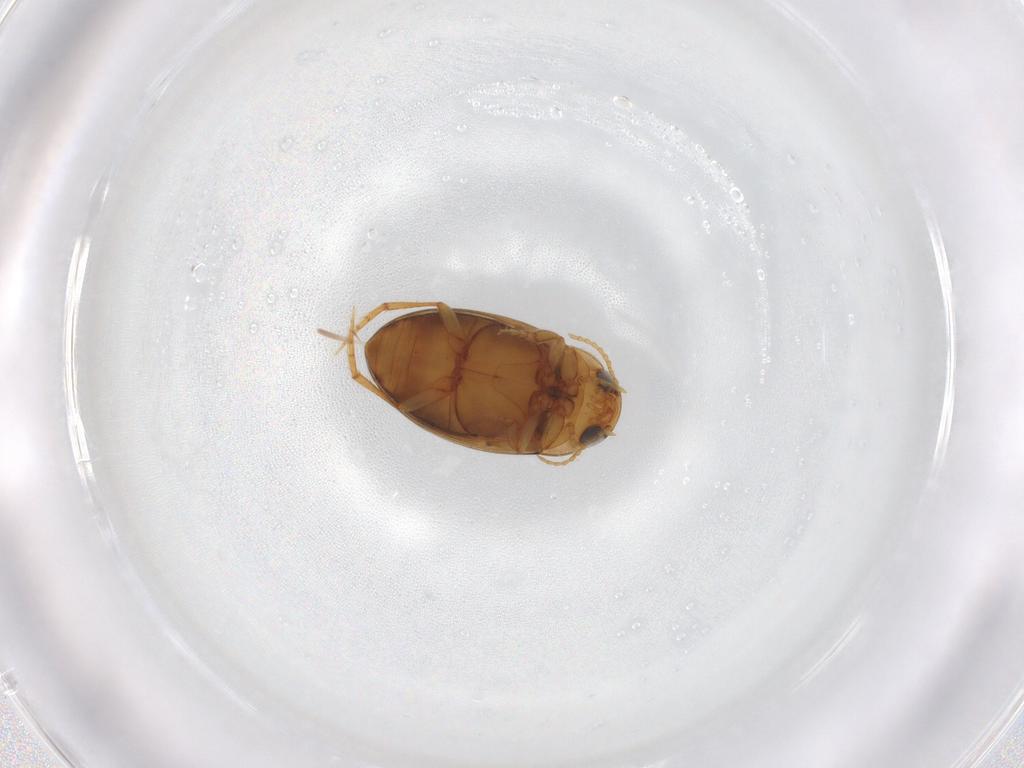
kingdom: Animalia
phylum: Arthropoda
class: Insecta
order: Coleoptera
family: Dytiscidae
